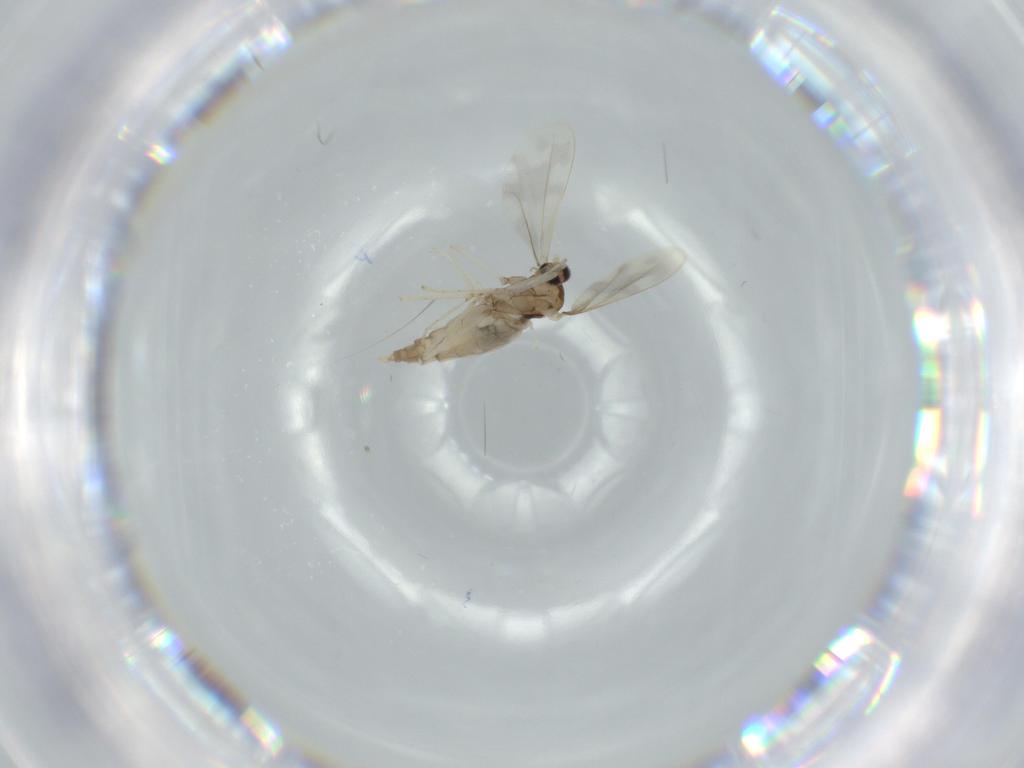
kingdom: Animalia
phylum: Arthropoda
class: Insecta
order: Diptera
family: Cecidomyiidae
